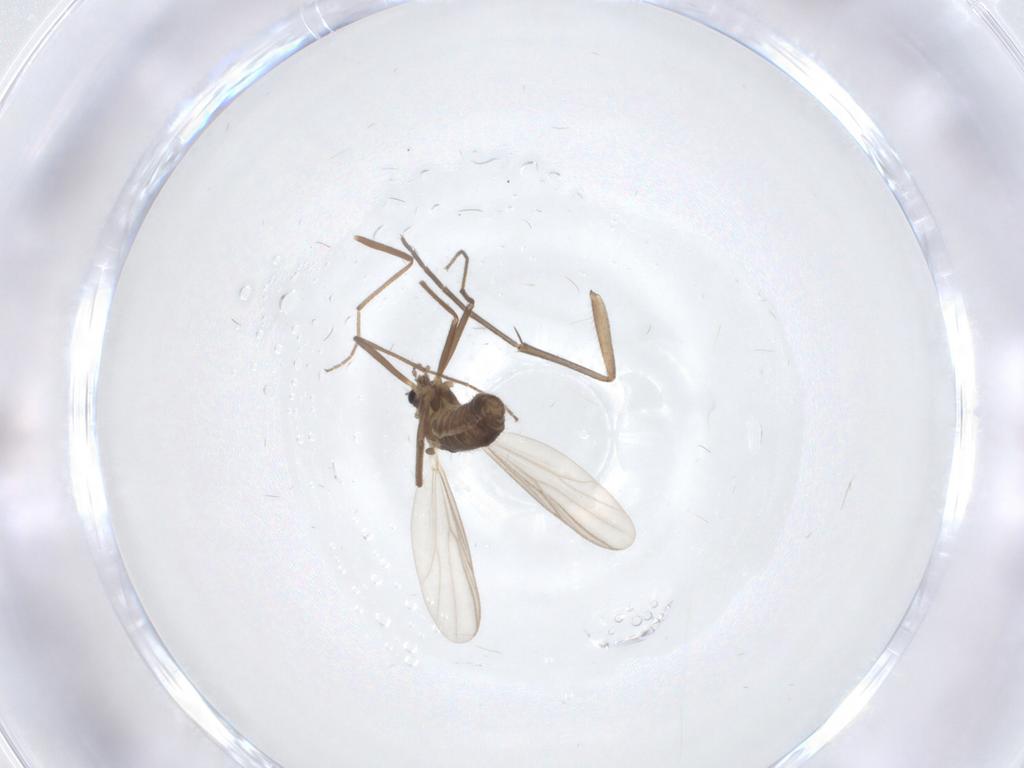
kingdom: Animalia
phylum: Arthropoda
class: Insecta
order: Diptera
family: Chironomidae
